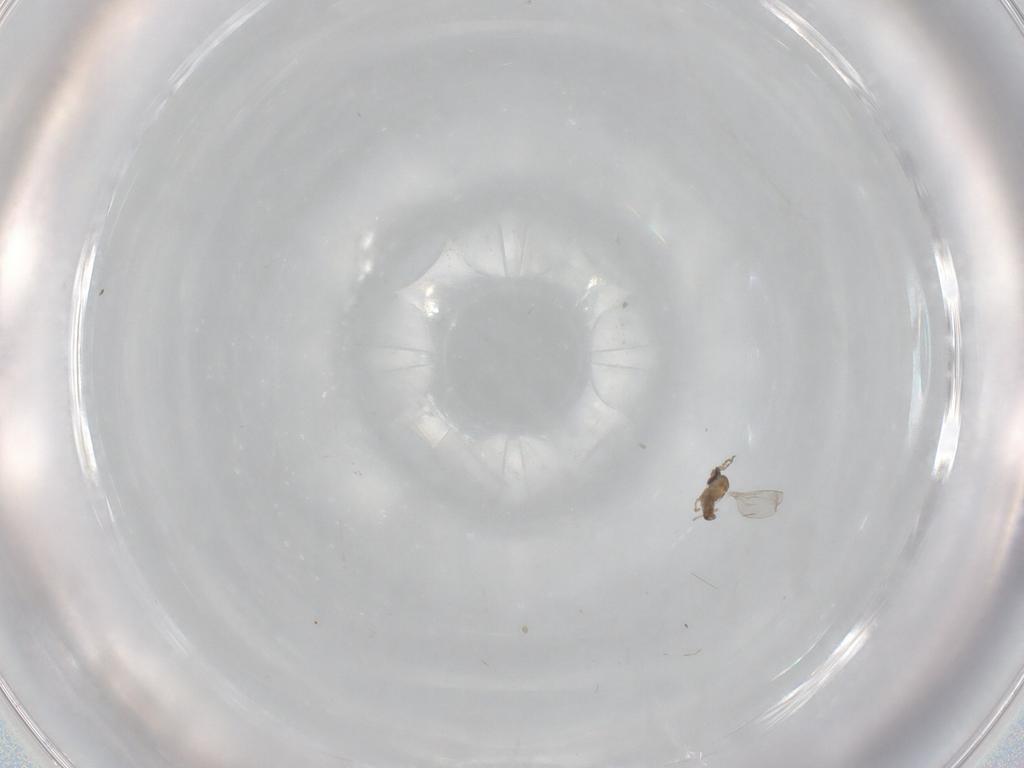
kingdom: Animalia
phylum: Arthropoda
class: Insecta
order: Diptera
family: Cecidomyiidae
